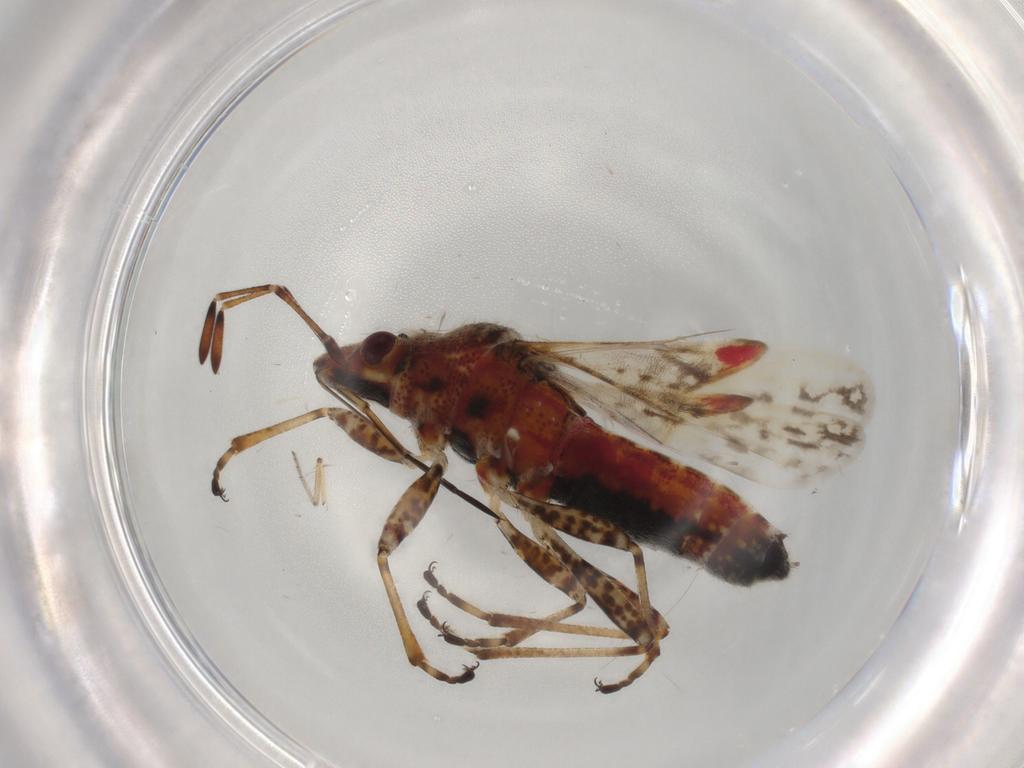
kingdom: Animalia
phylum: Arthropoda
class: Insecta
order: Hemiptera
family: Lygaeidae
